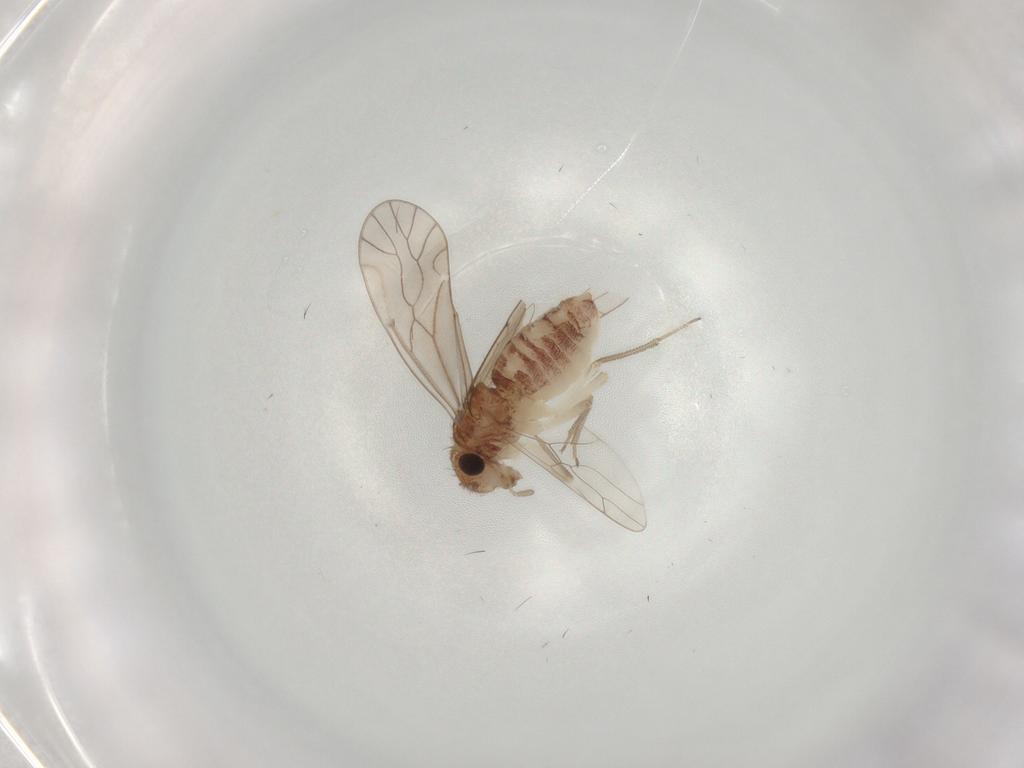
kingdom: Animalia
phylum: Arthropoda
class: Insecta
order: Psocodea
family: Caeciliusidae
